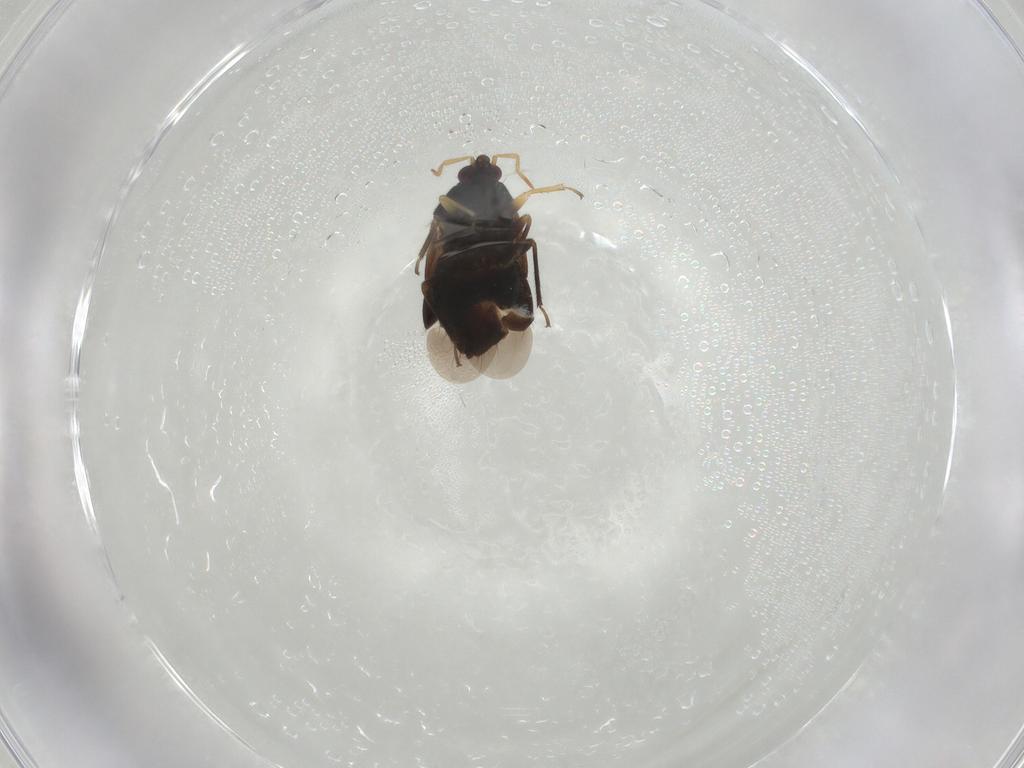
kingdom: Animalia
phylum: Arthropoda
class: Insecta
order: Hemiptera
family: Anthocoridae
